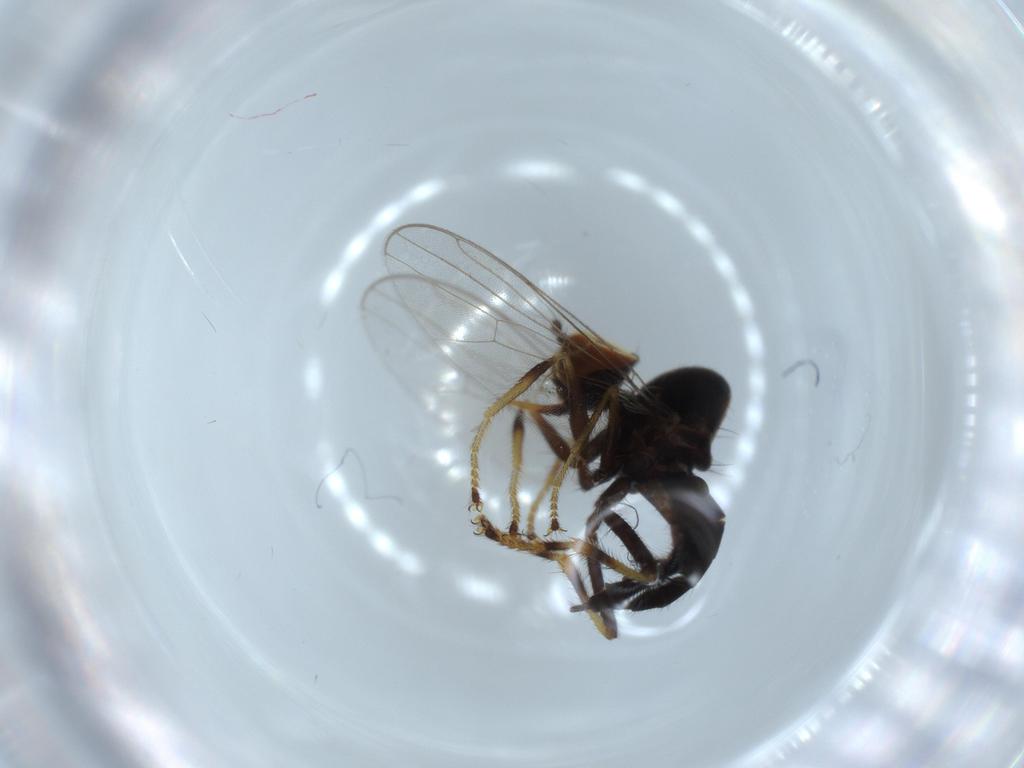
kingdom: Animalia
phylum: Arthropoda
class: Insecta
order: Diptera
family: Hybotidae
